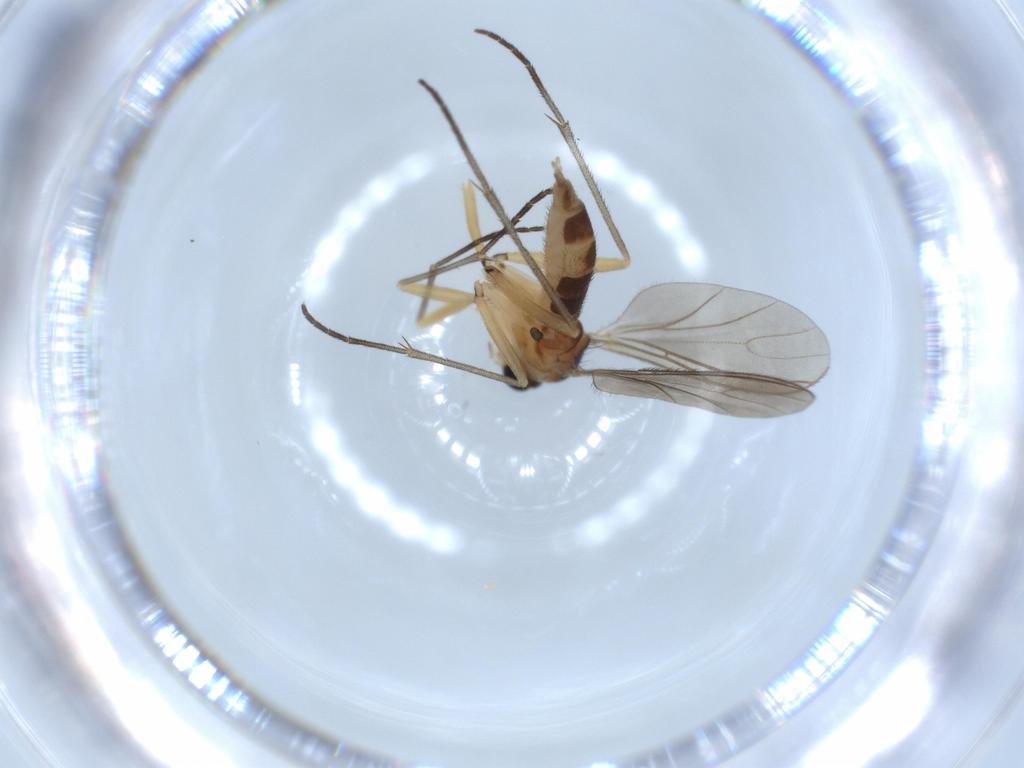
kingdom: Animalia
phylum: Arthropoda
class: Insecta
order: Diptera
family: Sciaridae
